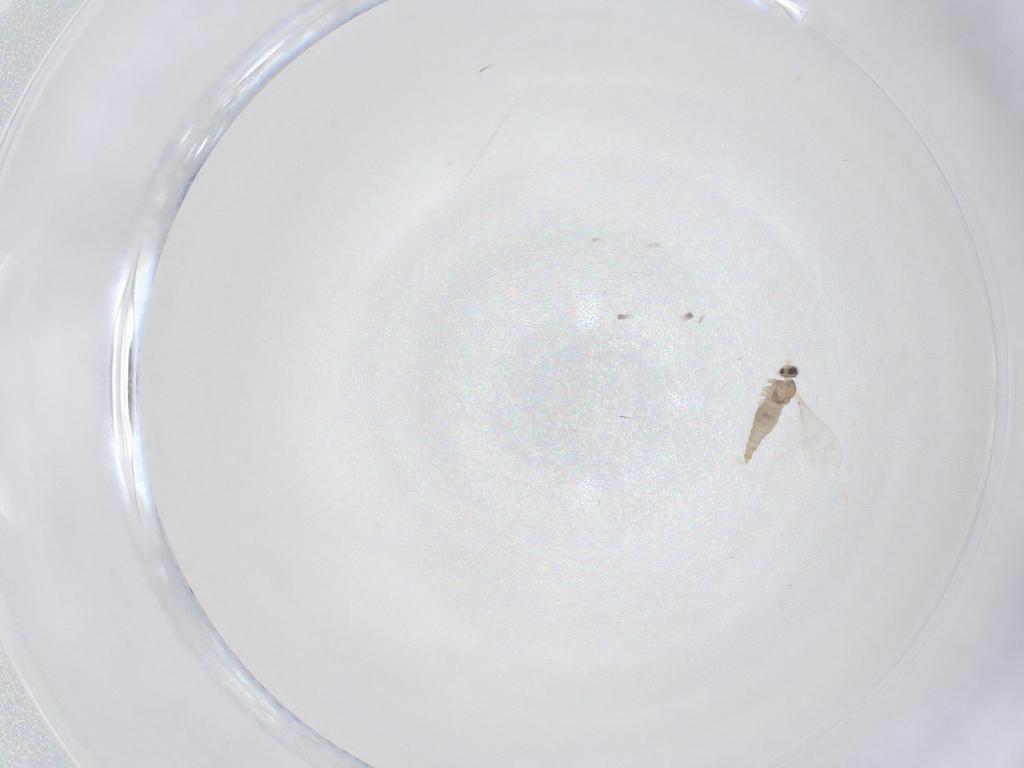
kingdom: Animalia
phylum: Arthropoda
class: Insecta
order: Diptera
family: Cecidomyiidae
